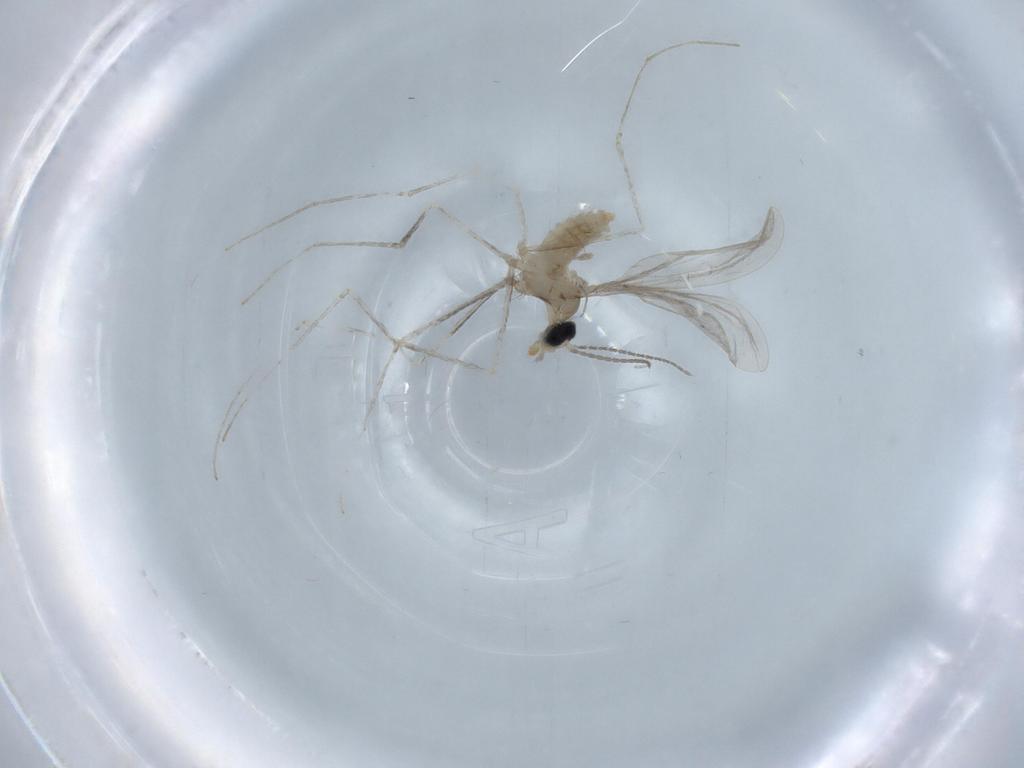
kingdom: Animalia
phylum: Arthropoda
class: Insecta
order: Diptera
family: Cecidomyiidae
